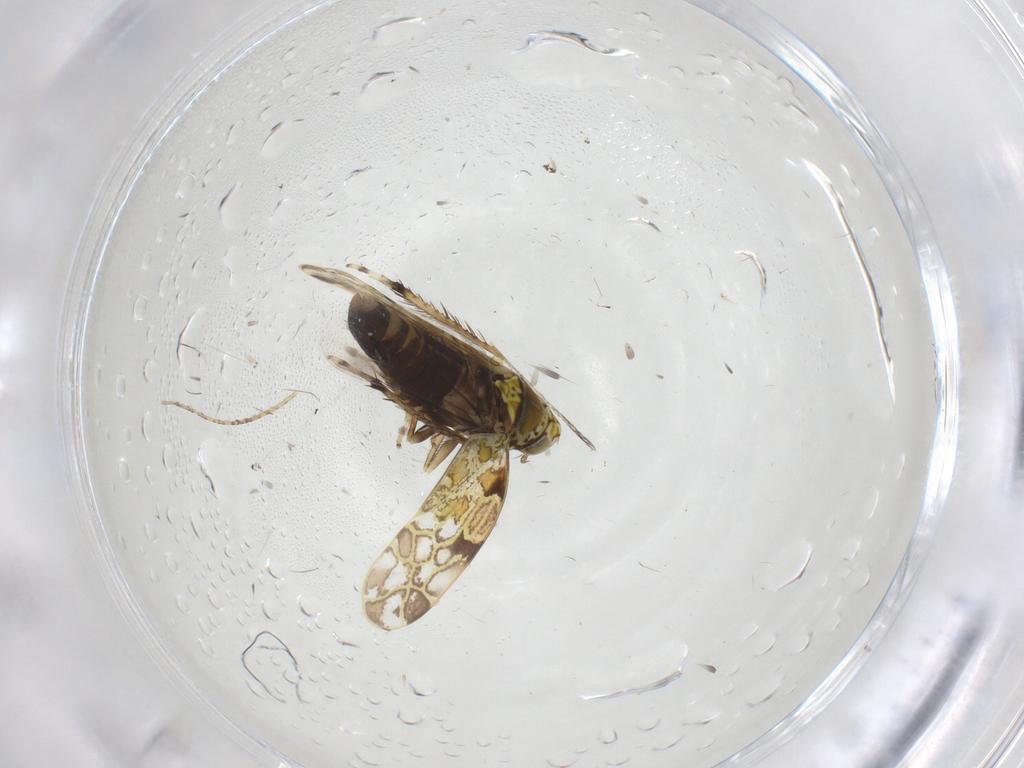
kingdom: Animalia
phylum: Arthropoda
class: Insecta
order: Hemiptera
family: Cicadellidae
